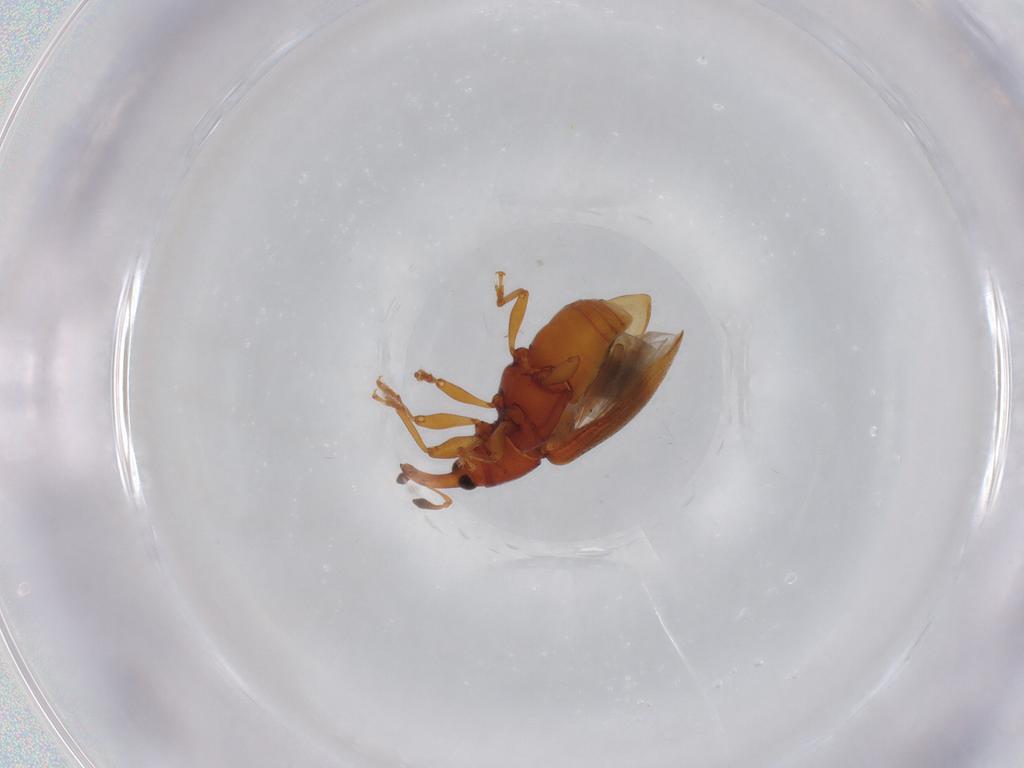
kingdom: Animalia
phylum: Arthropoda
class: Insecta
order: Coleoptera
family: Curculionidae
